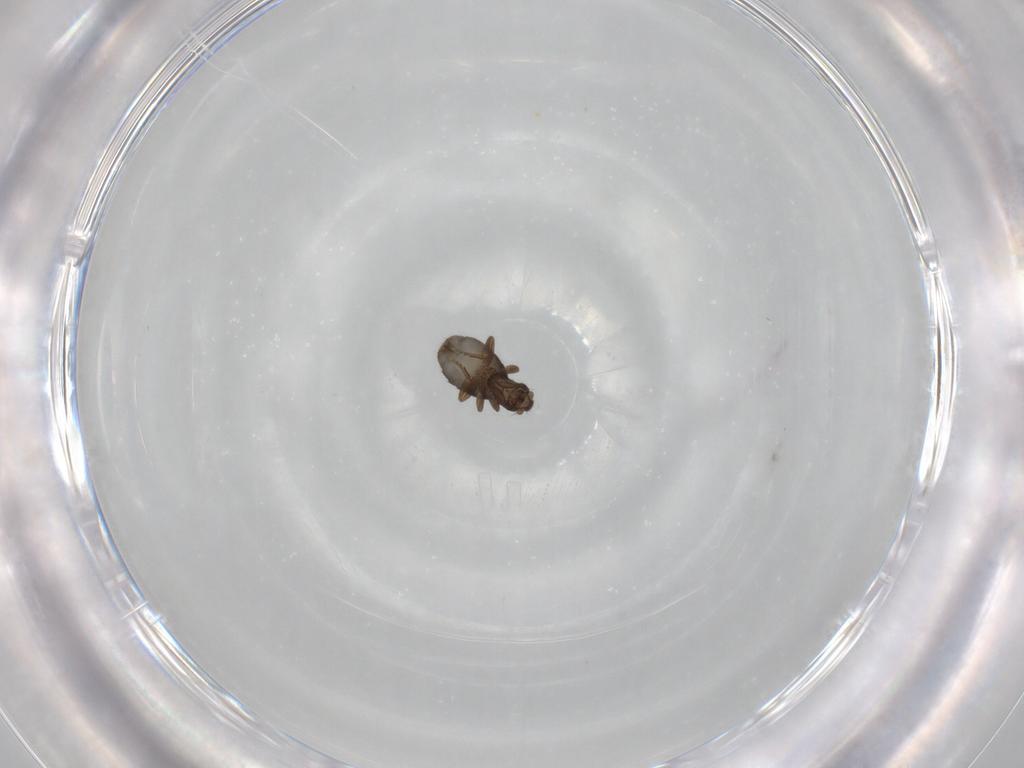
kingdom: Animalia
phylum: Arthropoda
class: Insecta
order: Diptera
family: Phoridae
